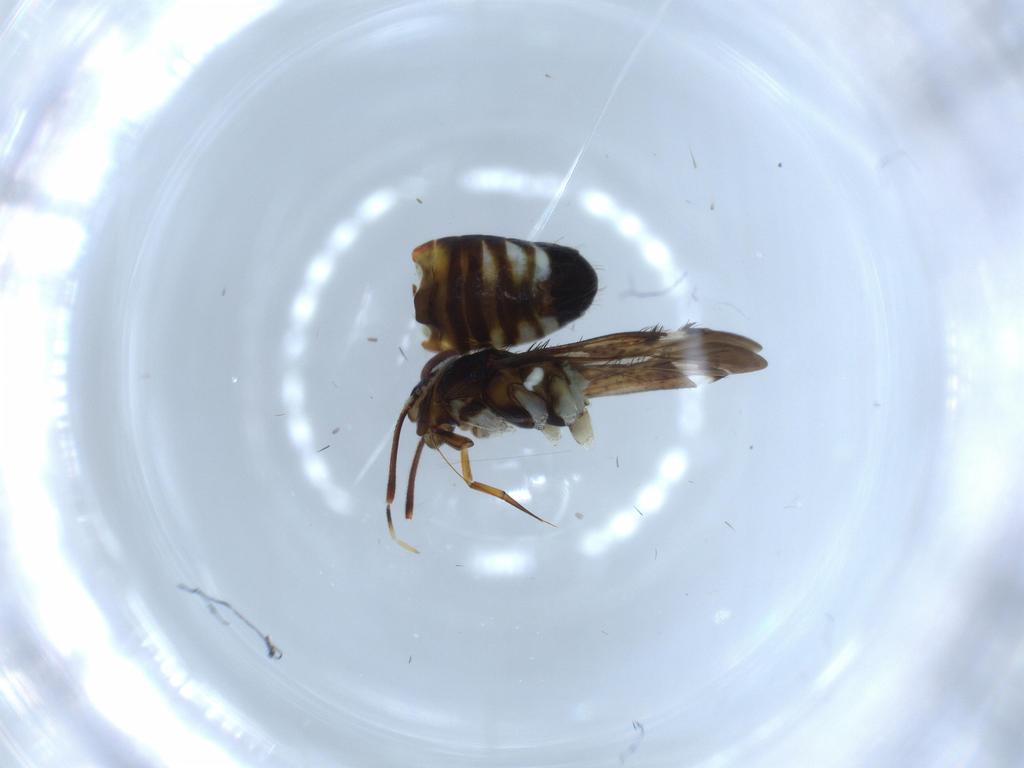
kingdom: Animalia
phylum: Arthropoda
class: Insecta
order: Hemiptera
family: Miridae
